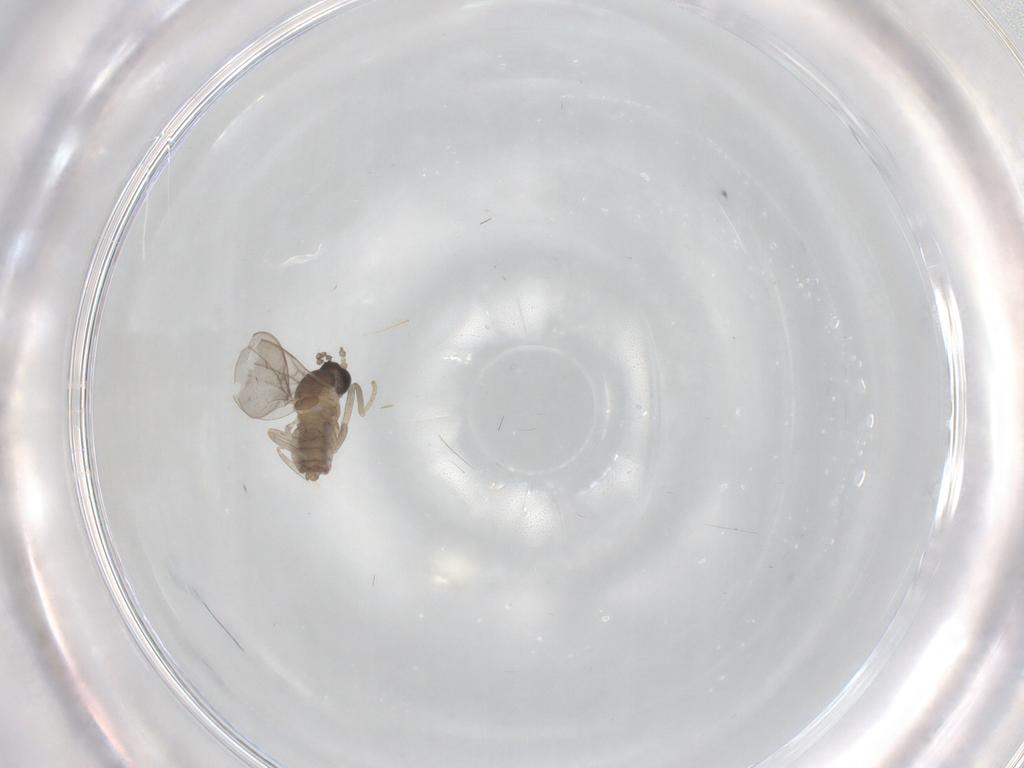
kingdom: Animalia
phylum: Arthropoda
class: Insecta
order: Diptera
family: Cecidomyiidae
